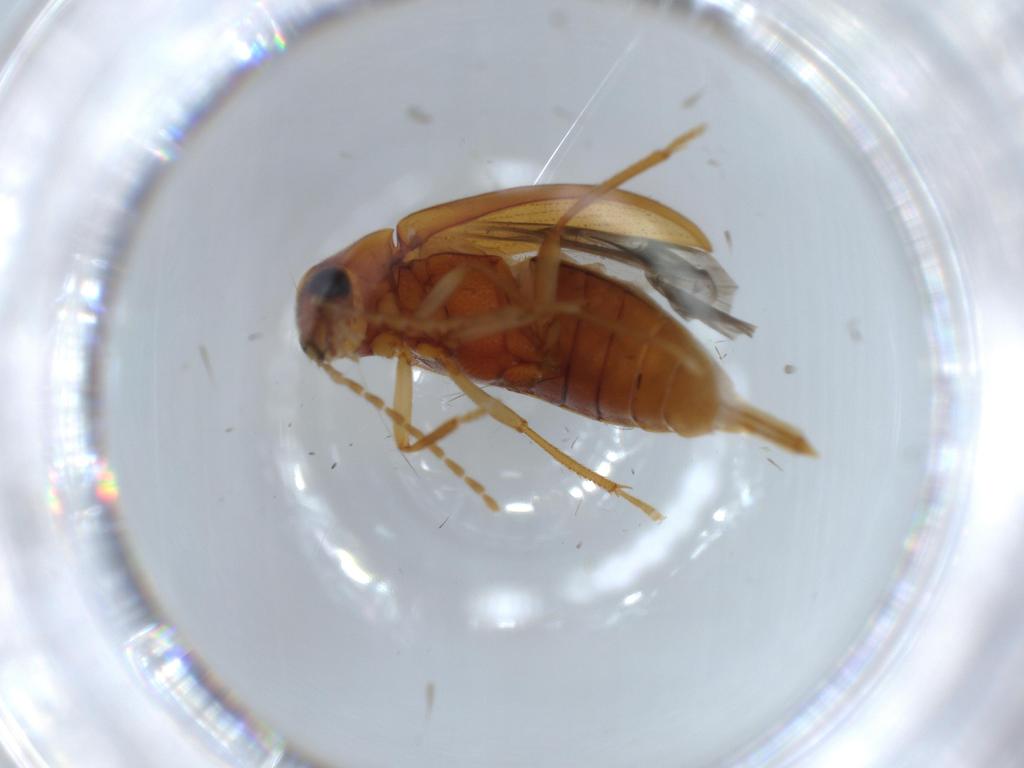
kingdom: Animalia
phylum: Arthropoda
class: Insecta
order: Coleoptera
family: Ptilodactylidae
